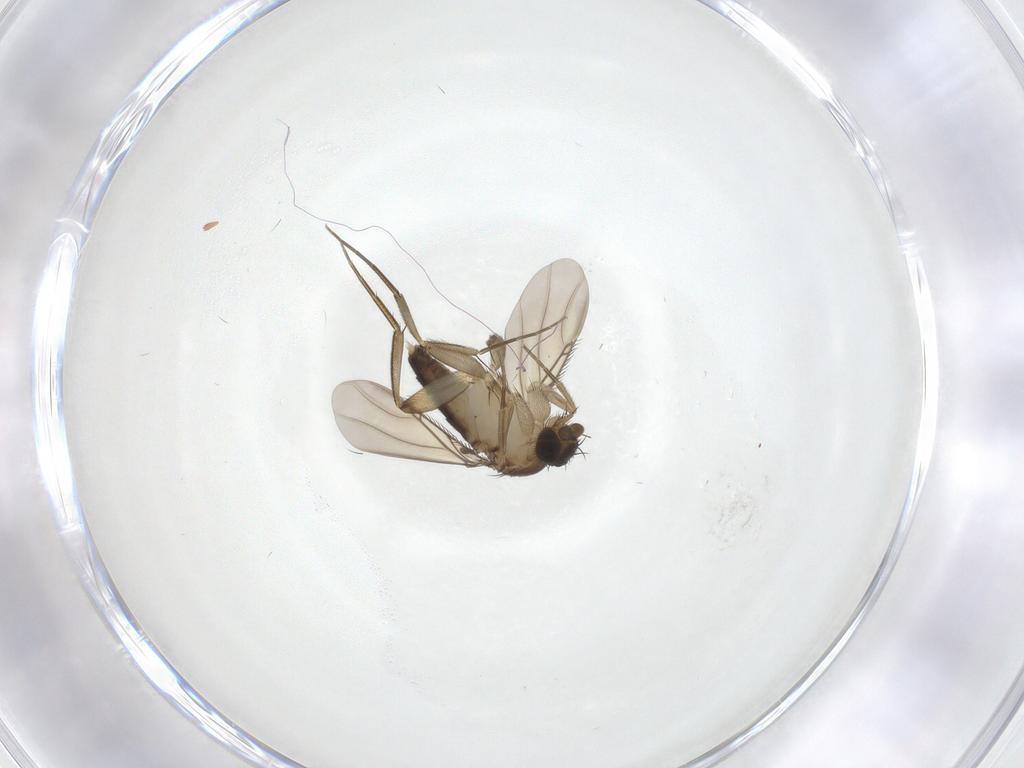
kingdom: Animalia
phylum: Arthropoda
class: Insecta
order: Diptera
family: Phoridae
